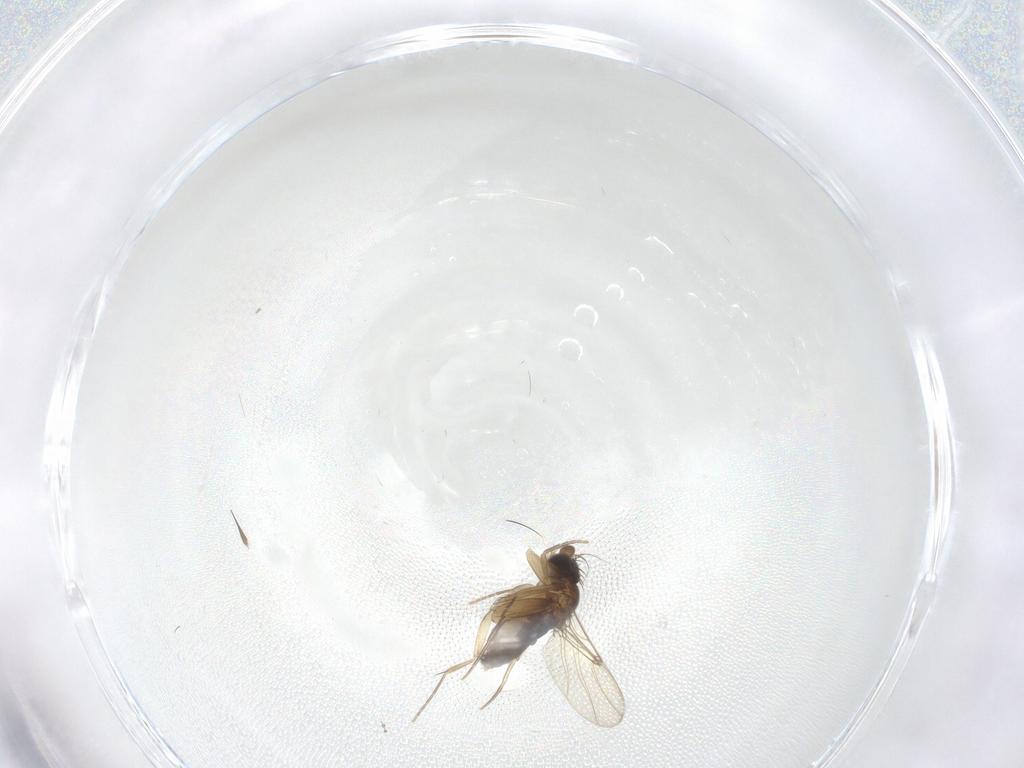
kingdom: Animalia
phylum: Arthropoda
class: Insecta
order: Diptera
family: Phoridae
